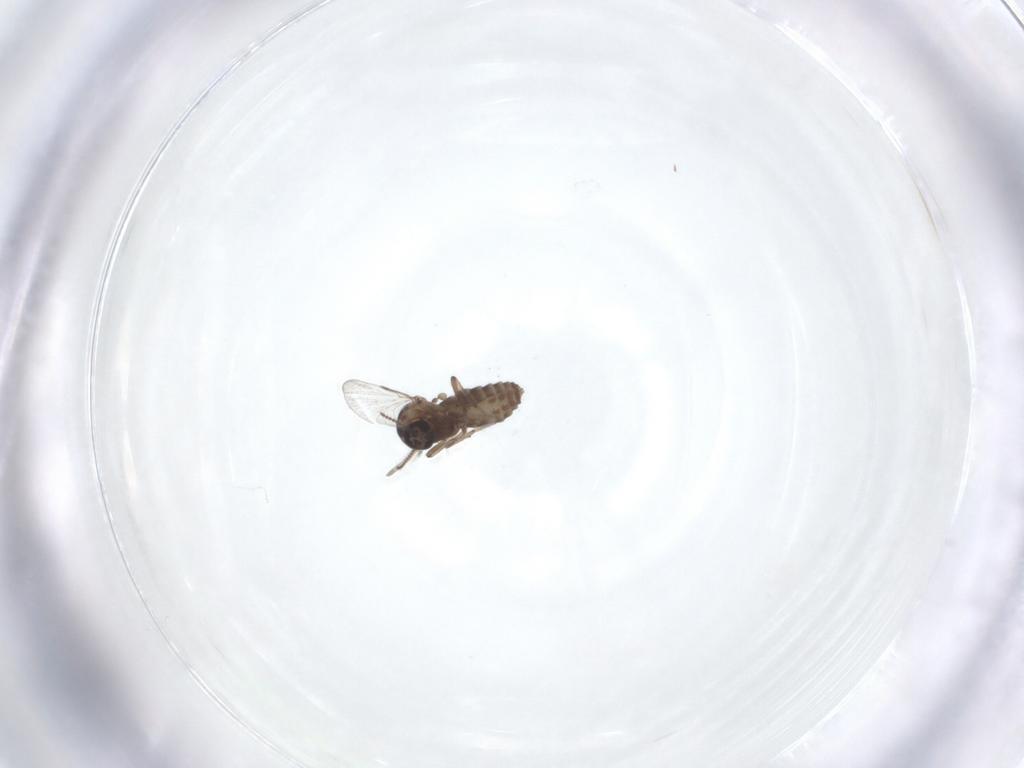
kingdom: Animalia
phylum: Arthropoda
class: Insecta
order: Diptera
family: Ceratopogonidae
